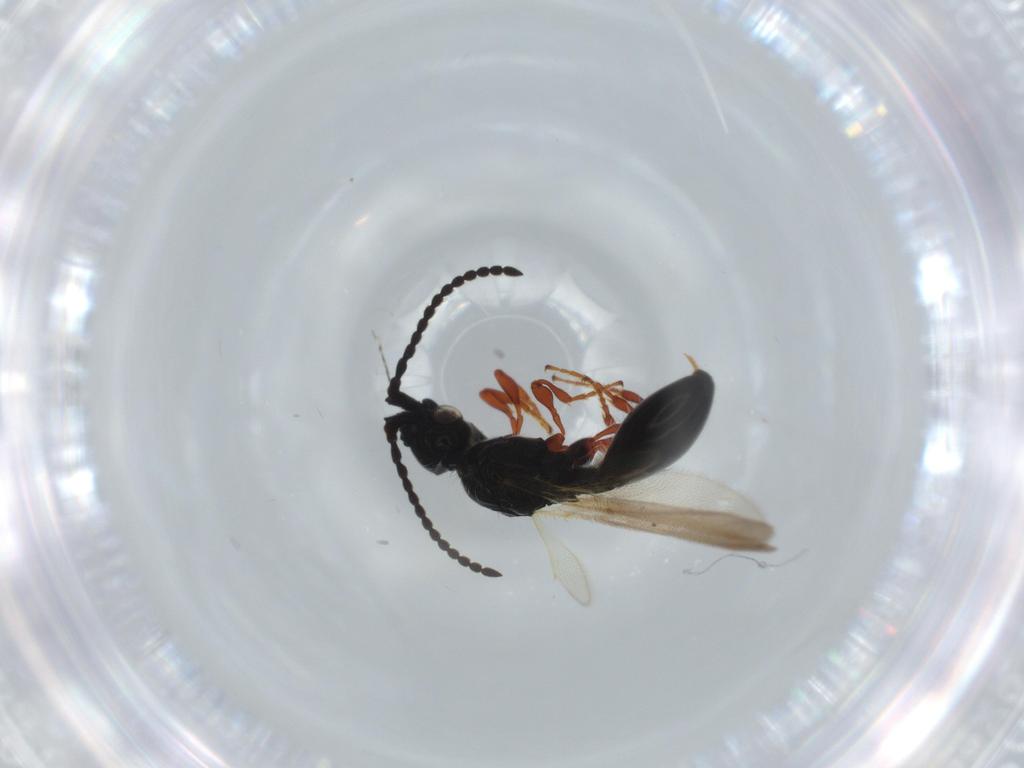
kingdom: Animalia
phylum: Arthropoda
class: Insecta
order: Hymenoptera
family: Diapriidae
